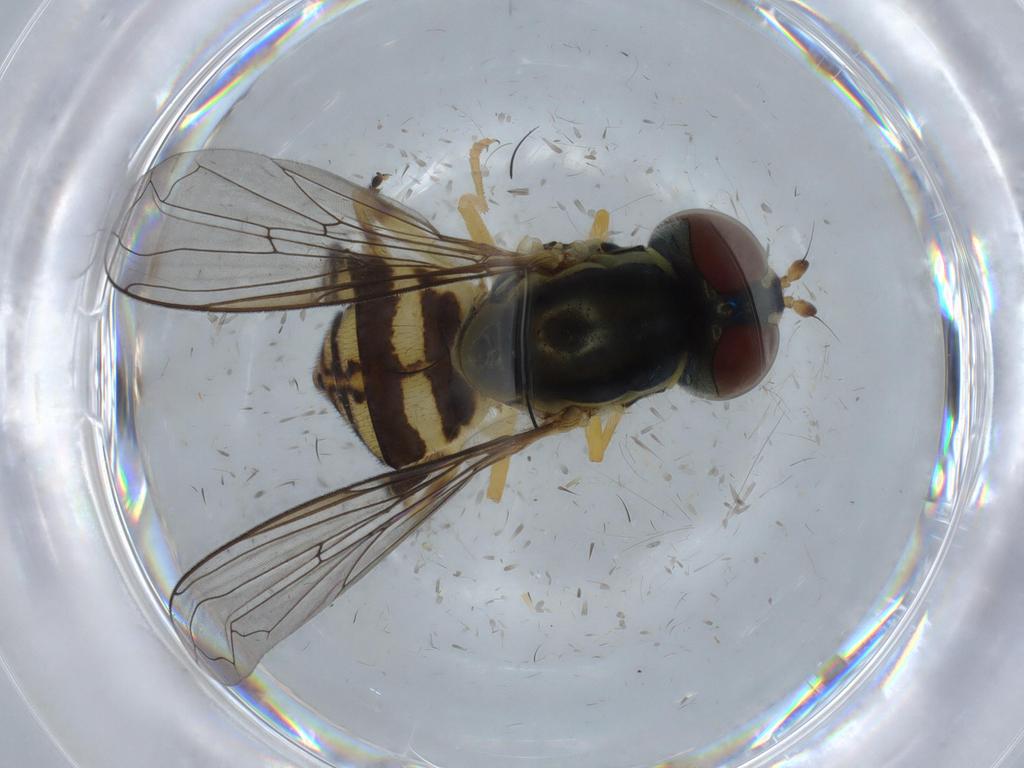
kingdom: Animalia
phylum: Arthropoda
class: Insecta
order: Diptera
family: Syrphidae
